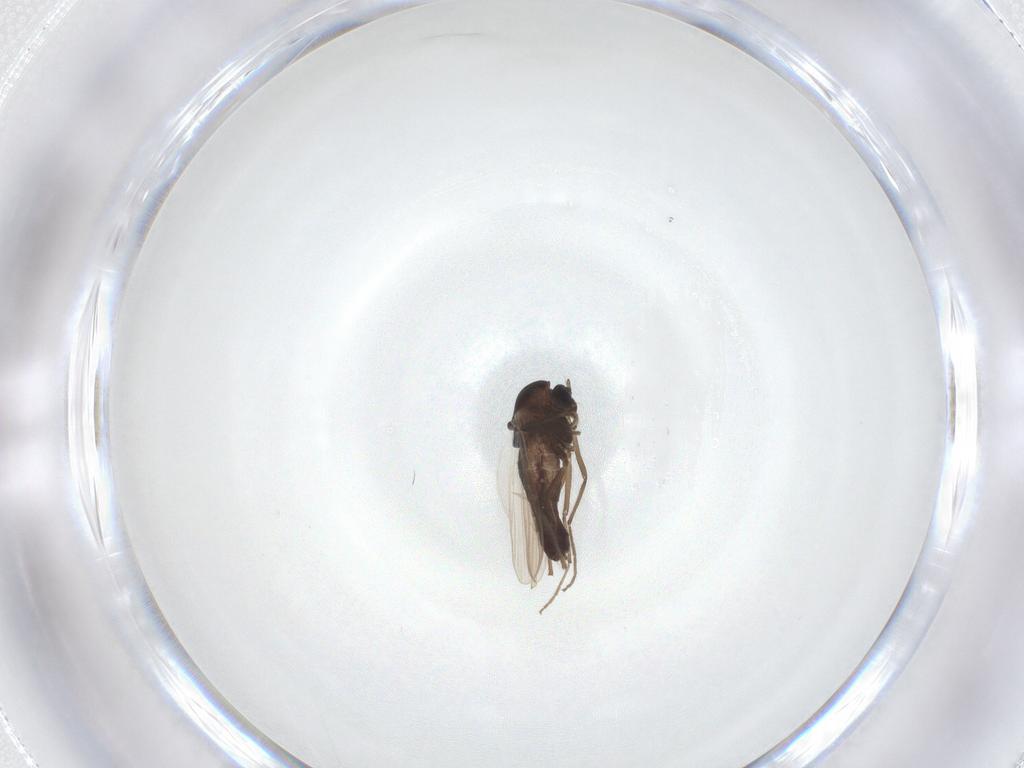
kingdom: Animalia
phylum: Arthropoda
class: Insecta
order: Diptera
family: Chironomidae
